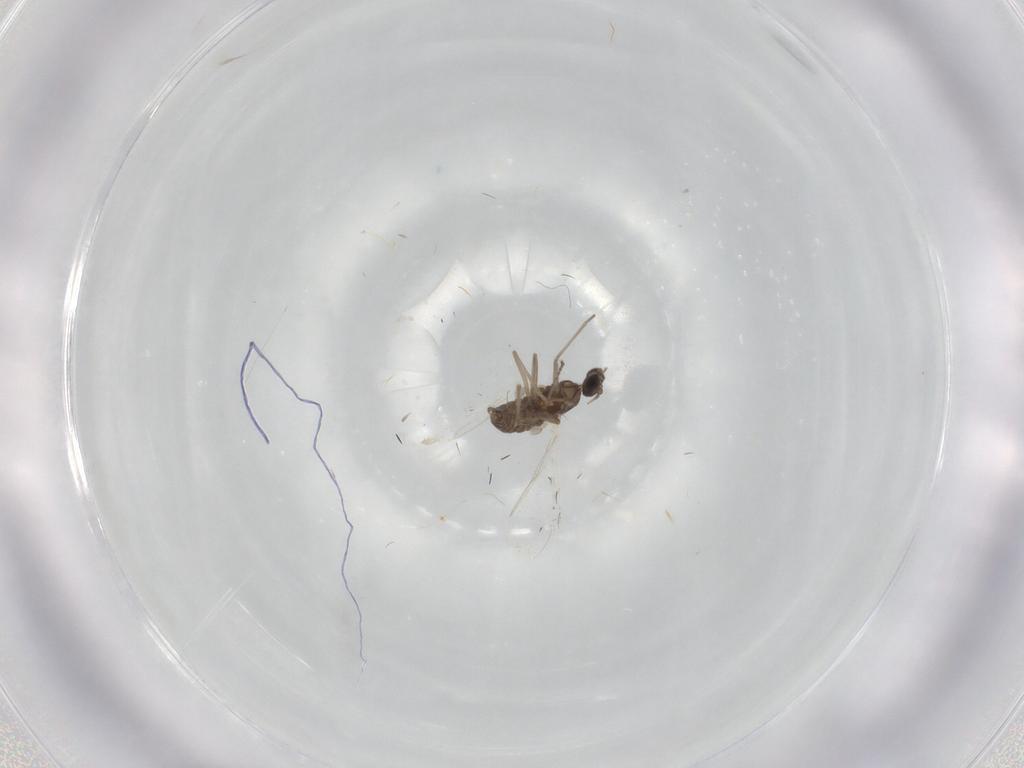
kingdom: Animalia
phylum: Arthropoda
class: Insecta
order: Diptera
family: Cecidomyiidae
